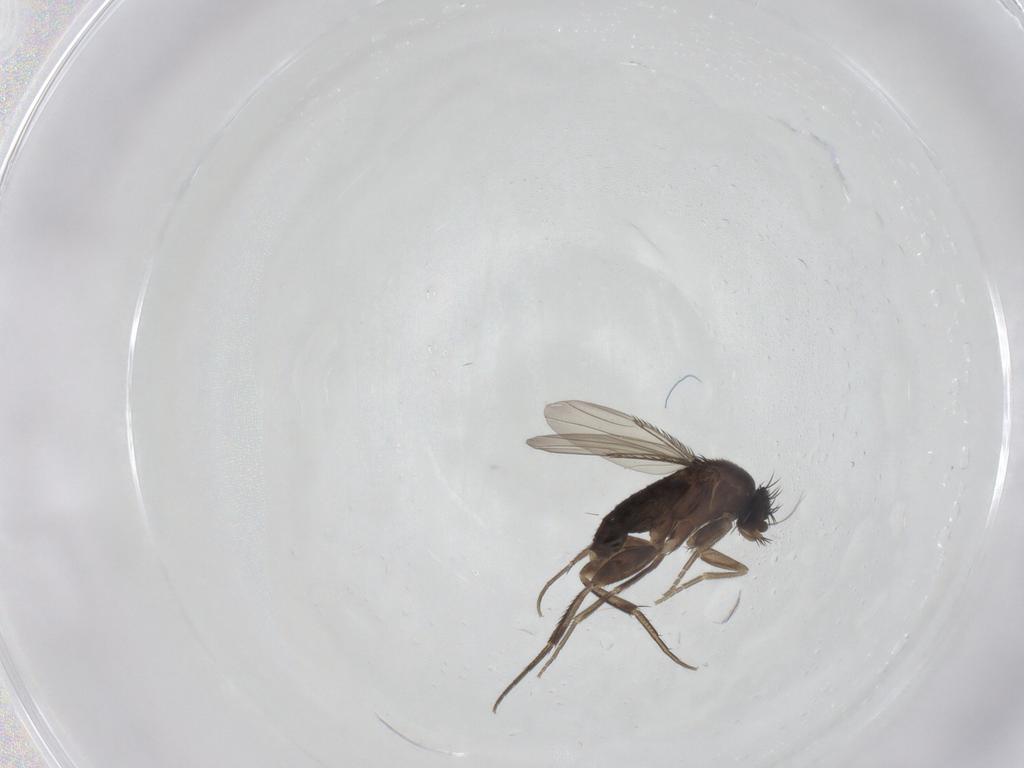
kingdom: Animalia
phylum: Arthropoda
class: Insecta
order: Diptera
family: Phoridae
